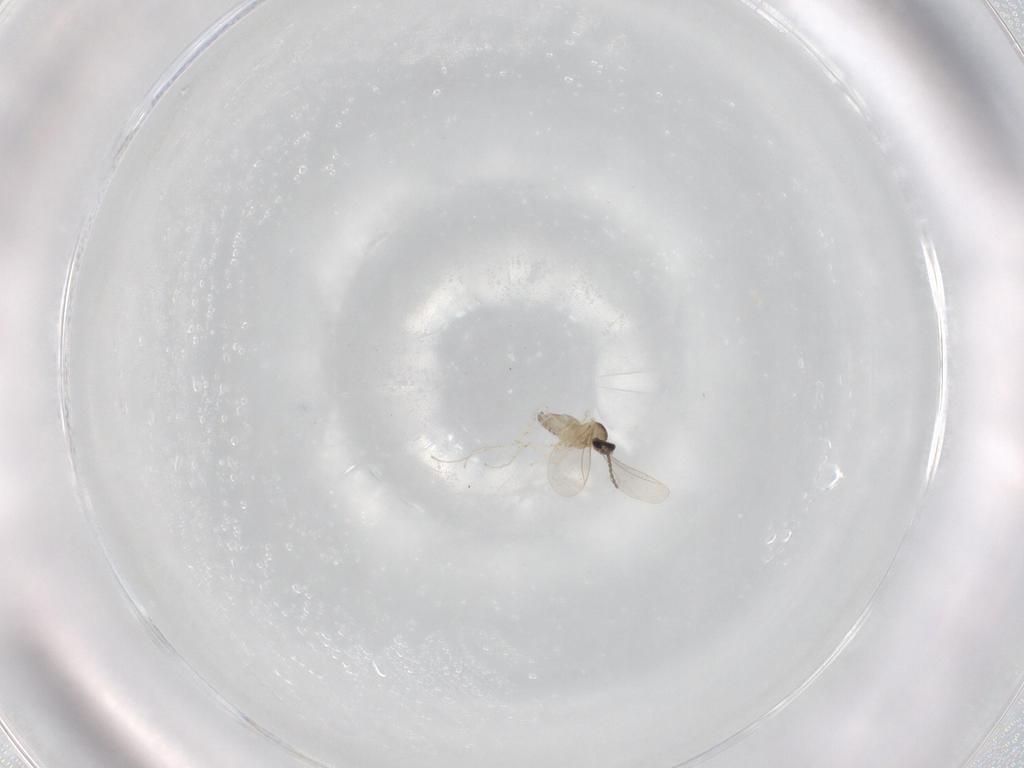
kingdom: Animalia
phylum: Arthropoda
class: Insecta
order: Diptera
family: Cecidomyiidae
